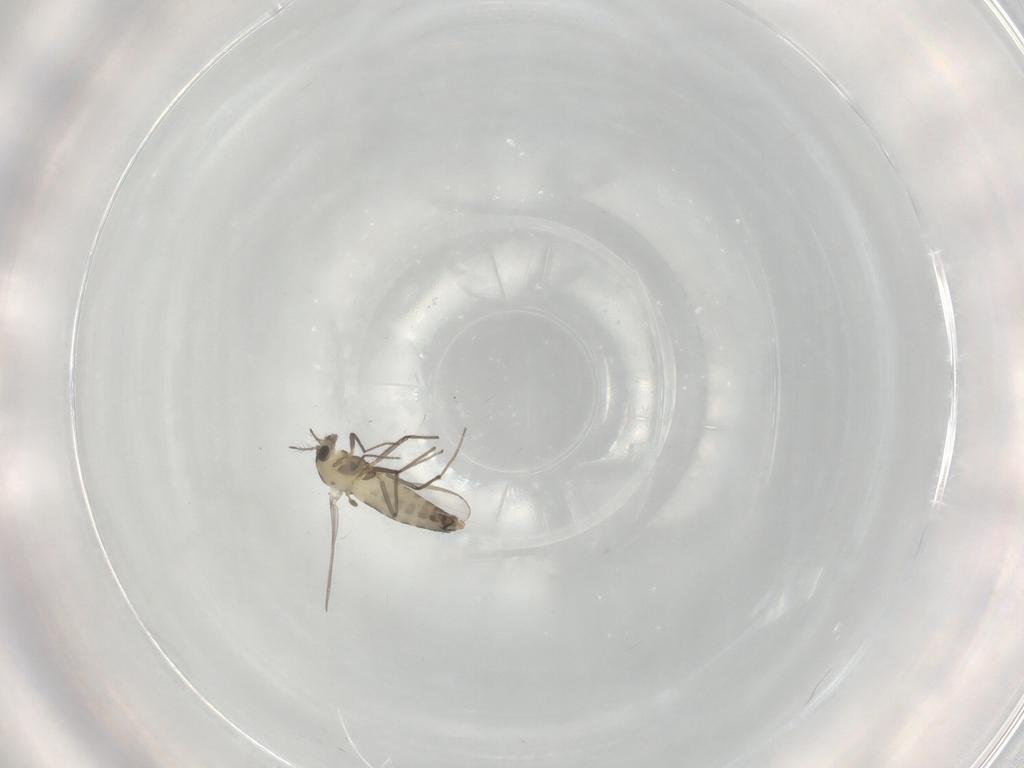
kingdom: Animalia
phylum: Arthropoda
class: Insecta
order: Diptera
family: Chironomidae
